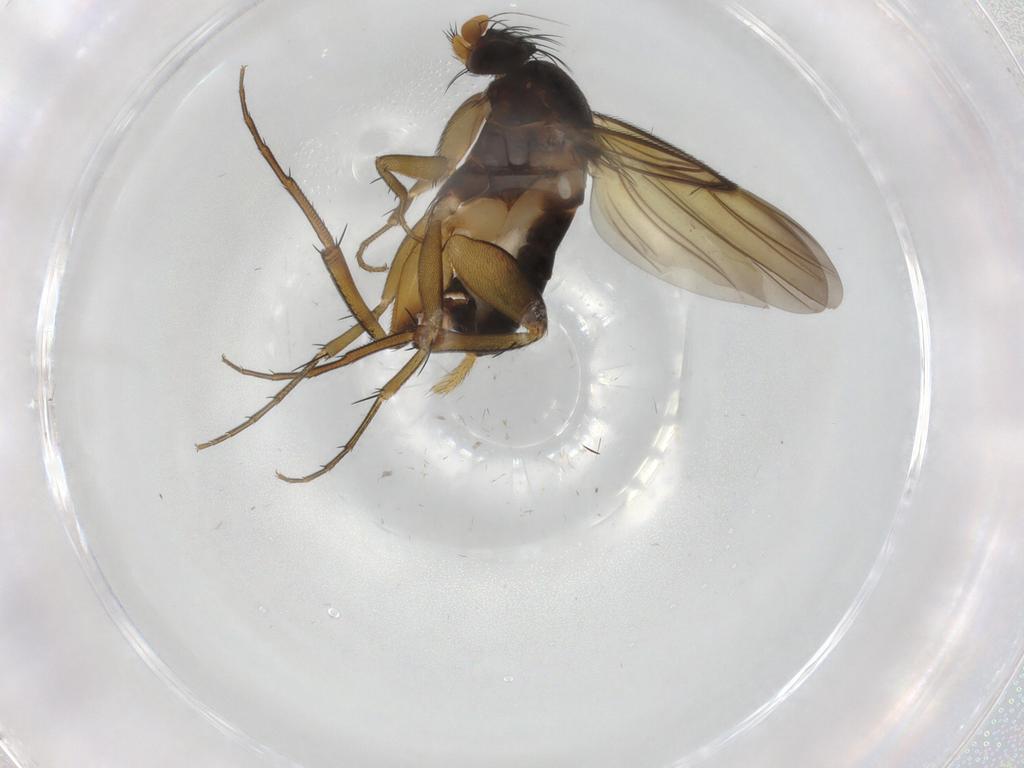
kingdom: Animalia
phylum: Arthropoda
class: Insecta
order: Diptera
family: Phoridae
